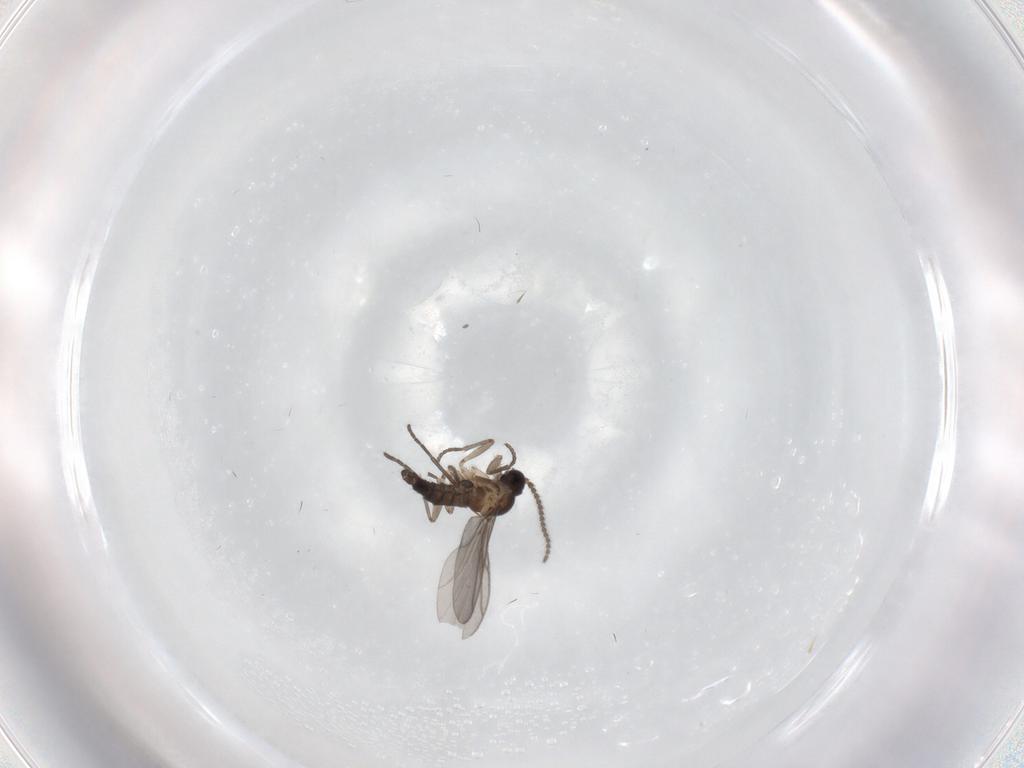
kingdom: Animalia
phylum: Arthropoda
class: Insecta
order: Diptera
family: Sciaridae
